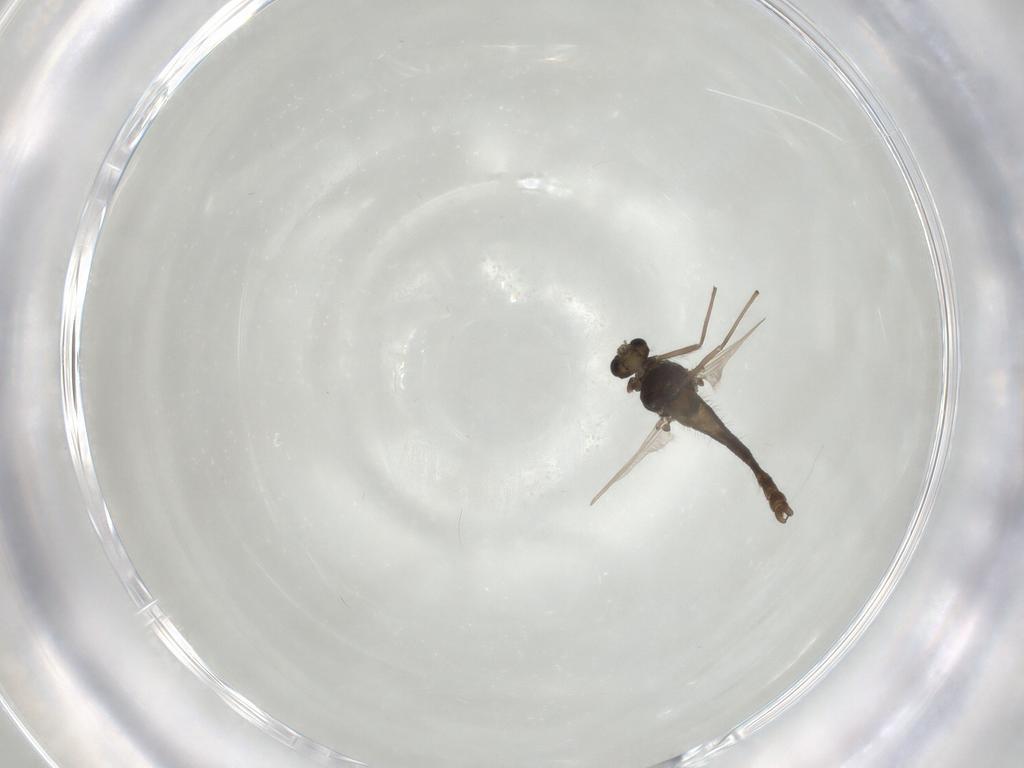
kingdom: Animalia
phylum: Arthropoda
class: Insecta
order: Diptera
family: Chironomidae
